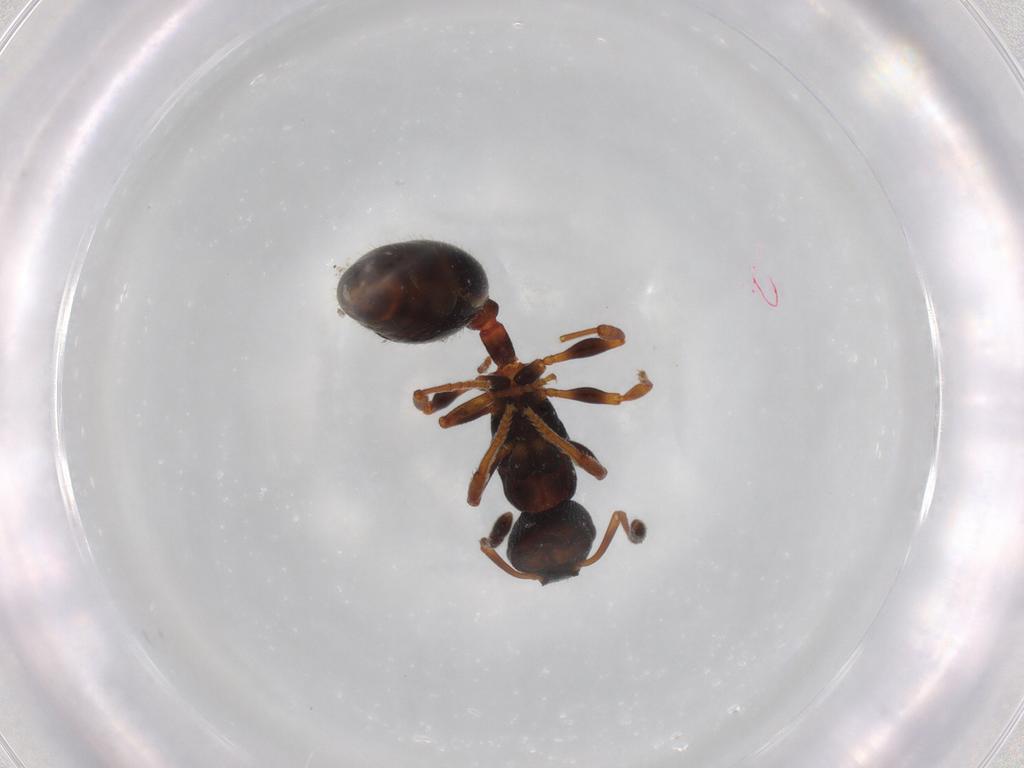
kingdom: Animalia
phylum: Arthropoda
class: Insecta
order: Hymenoptera
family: Formicidae
